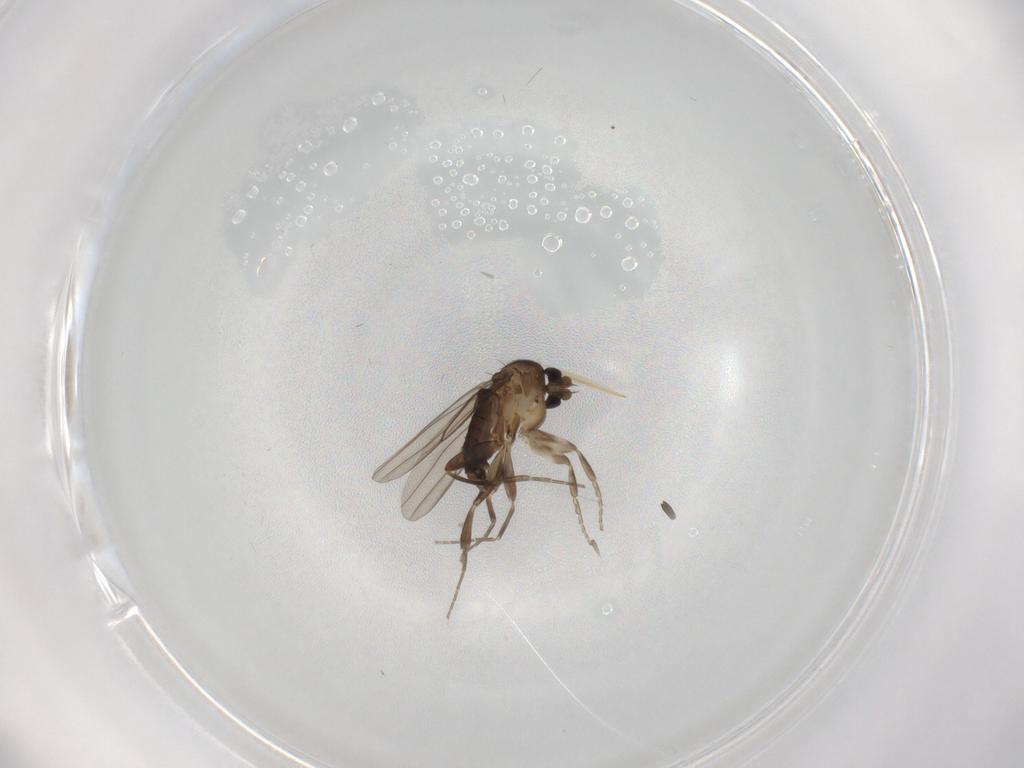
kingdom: Animalia
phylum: Arthropoda
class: Insecta
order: Diptera
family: Phoridae
